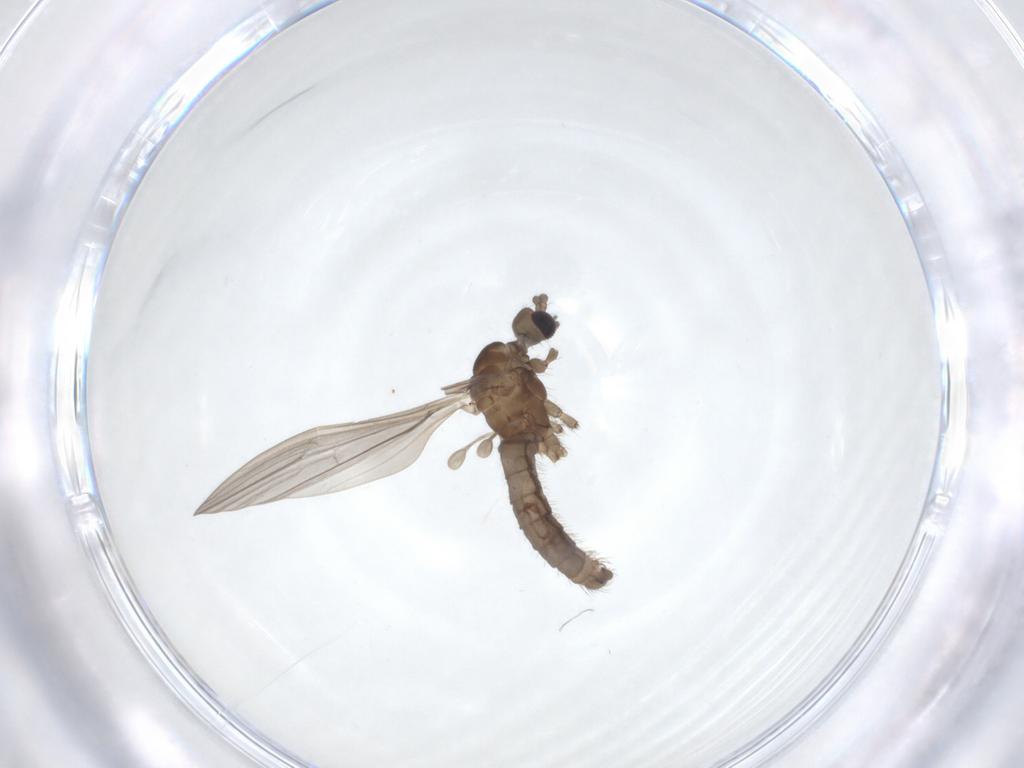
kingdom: Animalia
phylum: Arthropoda
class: Insecta
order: Diptera
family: Limoniidae
